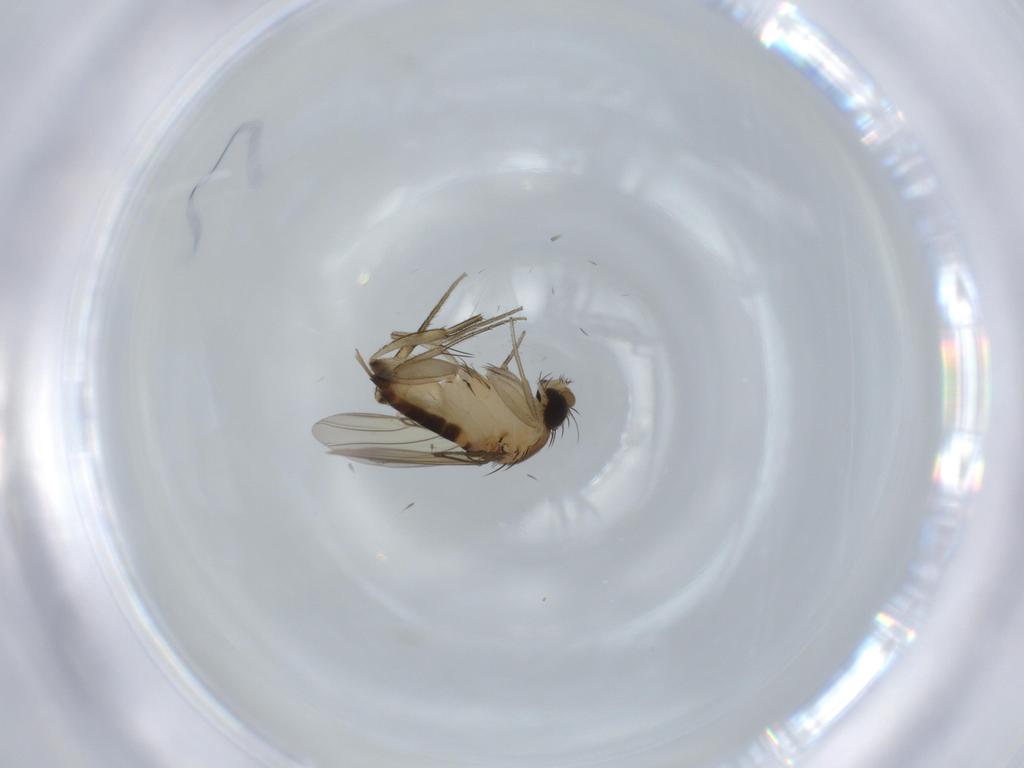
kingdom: Animalia
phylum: Arthropoda
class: Insecta
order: Diptera
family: Cecidomyiidae
